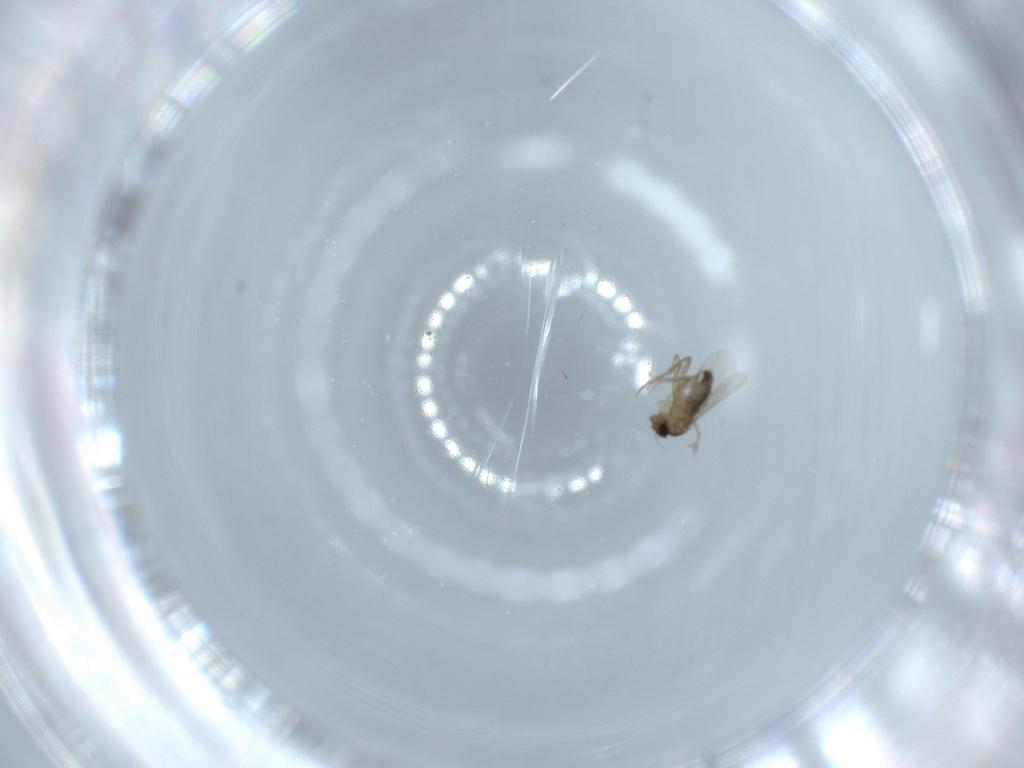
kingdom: Animalia
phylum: Arthropoda
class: Insecta
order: Diptera
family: Phoridae
